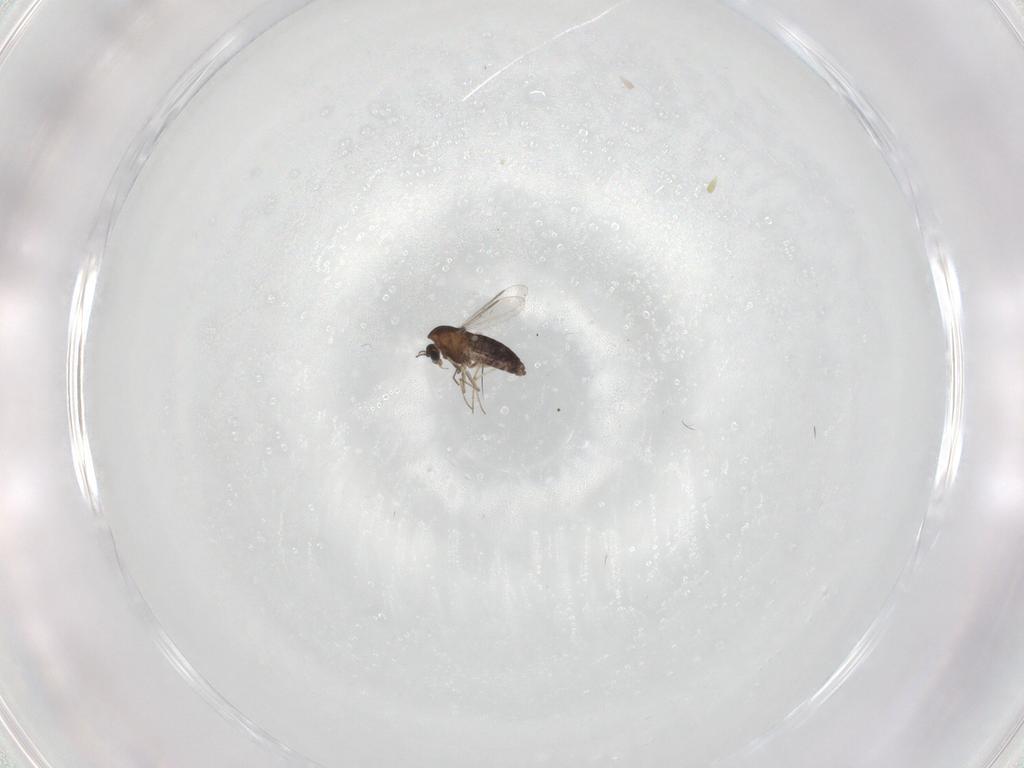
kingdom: Animalia
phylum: Arthropoda
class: Insecta
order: Diptera
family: Chironomidae
